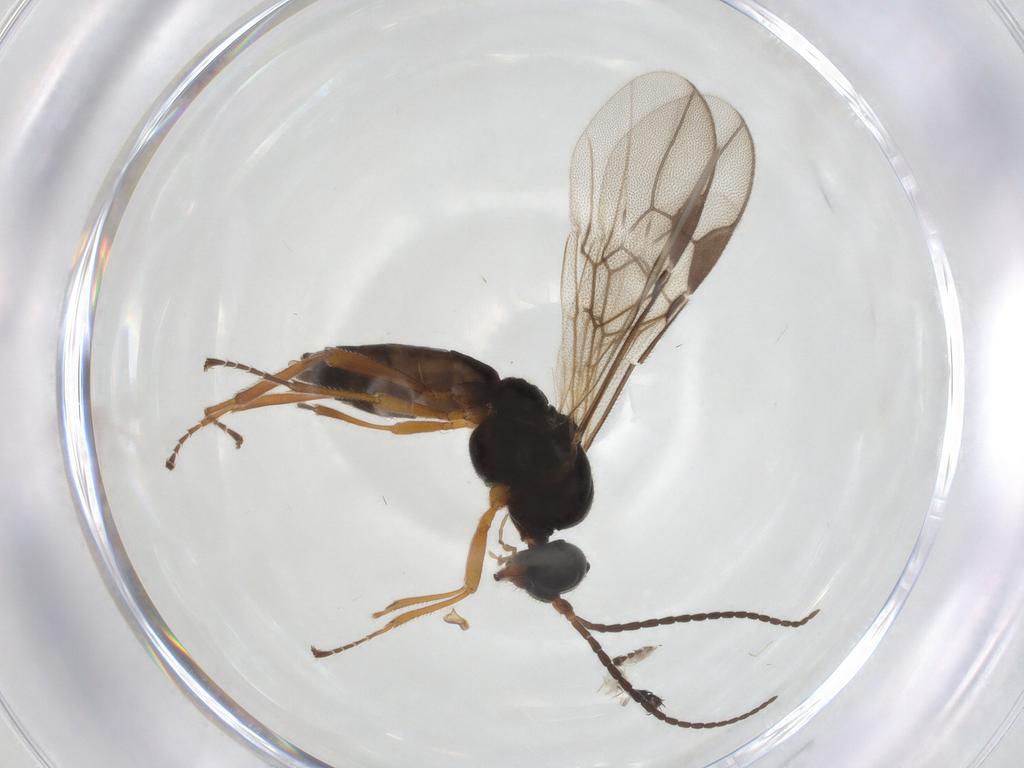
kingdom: Animalia
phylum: Arthropoda
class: Insecta
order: Hymenoptera
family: Braconidae
